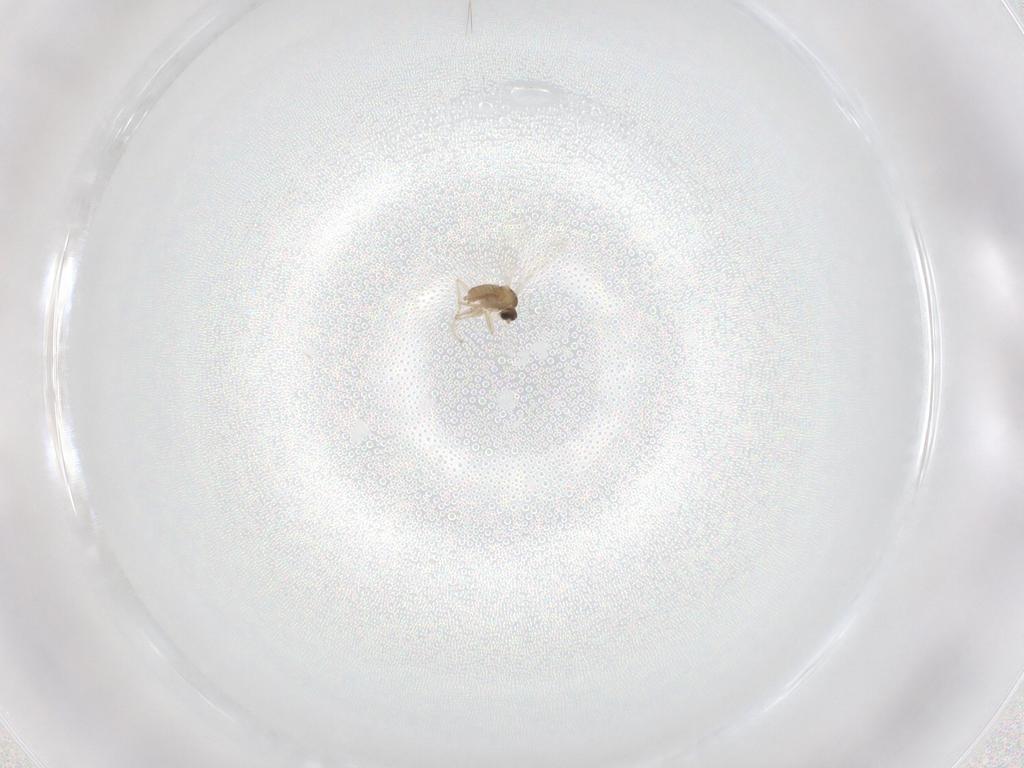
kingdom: Animalia
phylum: Arthropoda
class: Insecta
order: Diptera
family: Cecidomyiidae
